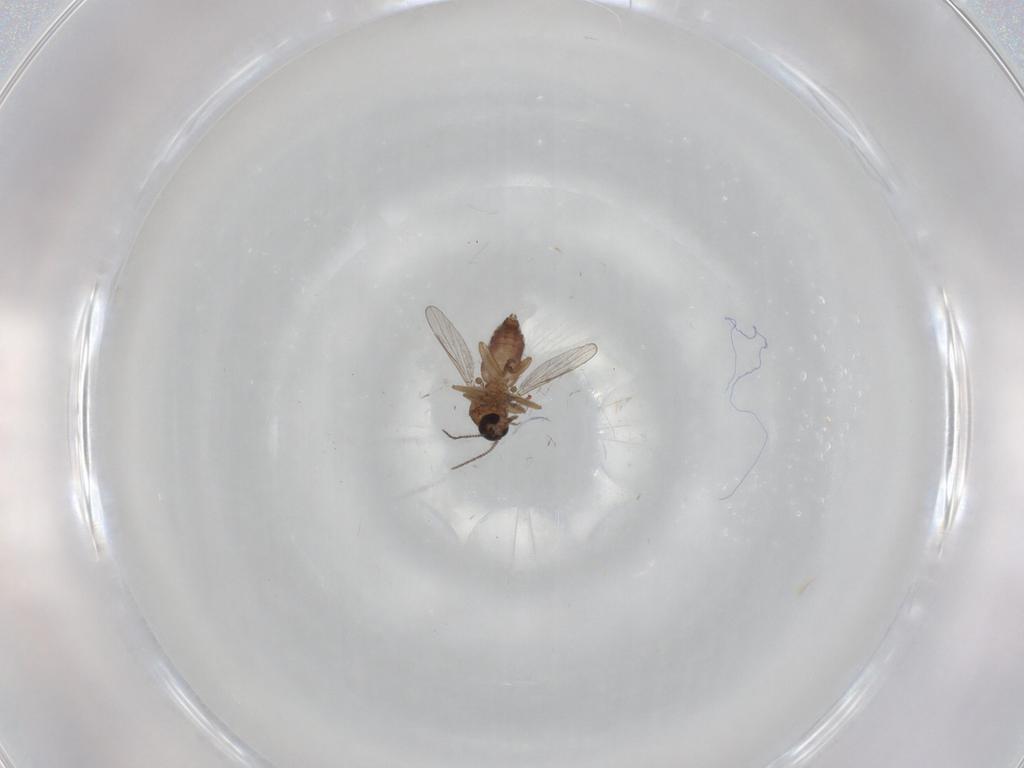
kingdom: Animalia
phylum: Arthropoda
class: Insecta
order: Diptera
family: Psychodidae
